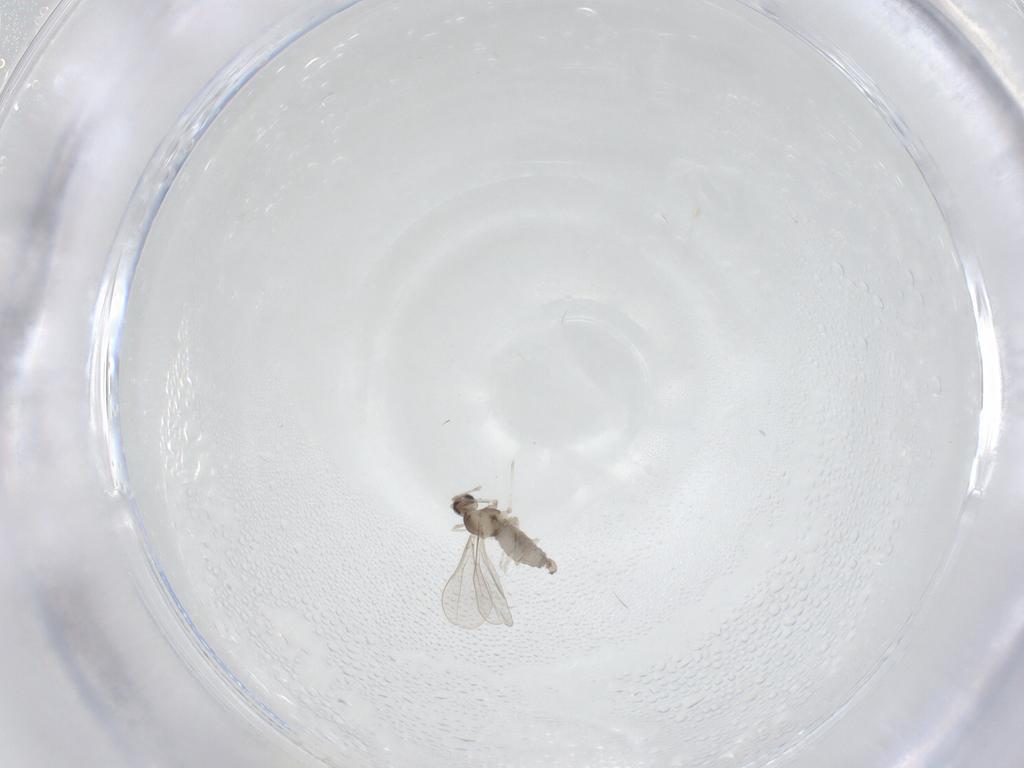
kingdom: Animalia
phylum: Arthropoda
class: Insecta
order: Diptera
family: Cecidomyiidae
